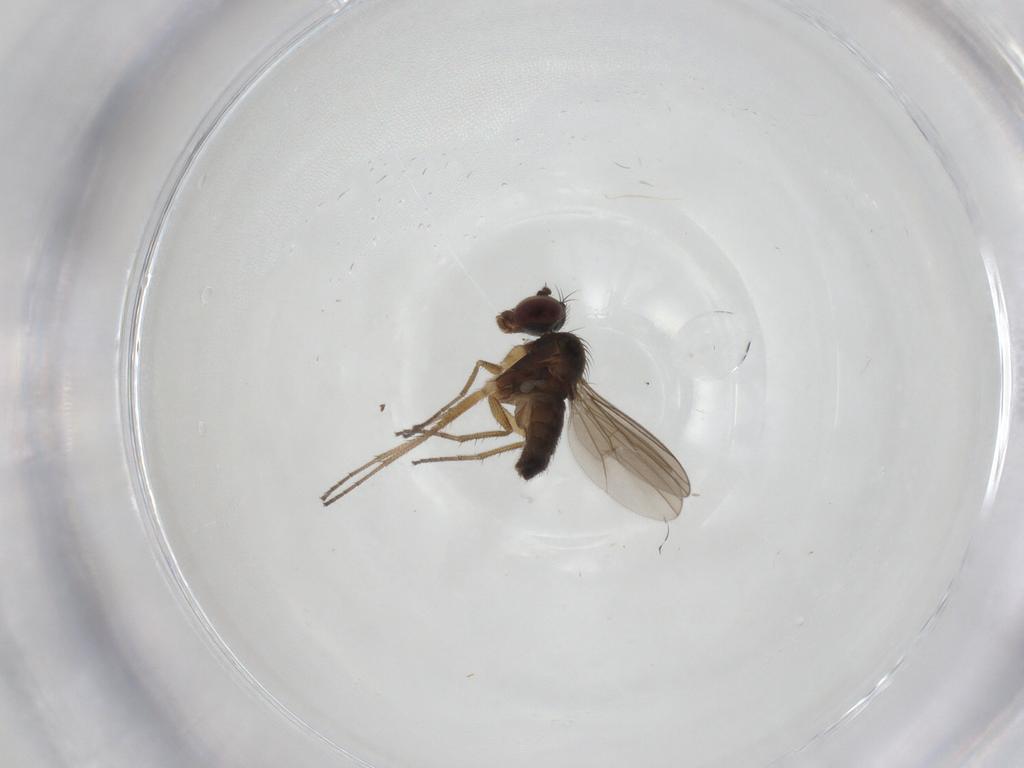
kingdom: Animalia
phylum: Arthropoda
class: Insecta
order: Diptera
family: Dolichopodidae
